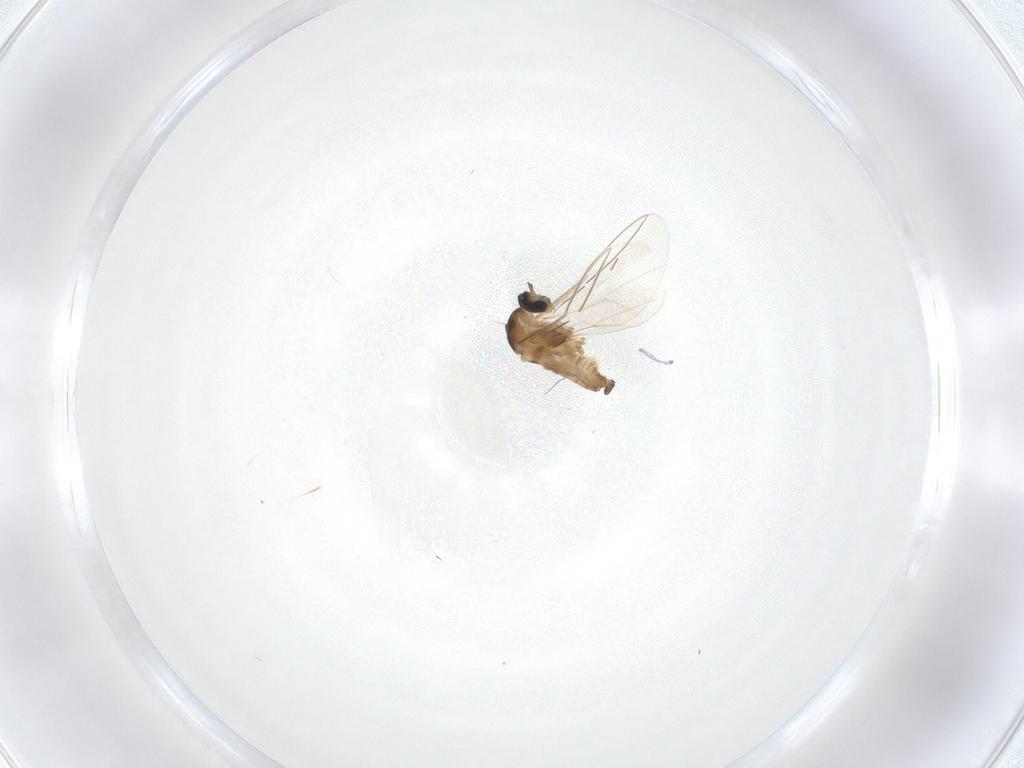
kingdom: Animalia
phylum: Arthropoda
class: Insecta
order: Diptera
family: Cecidomyiidae
